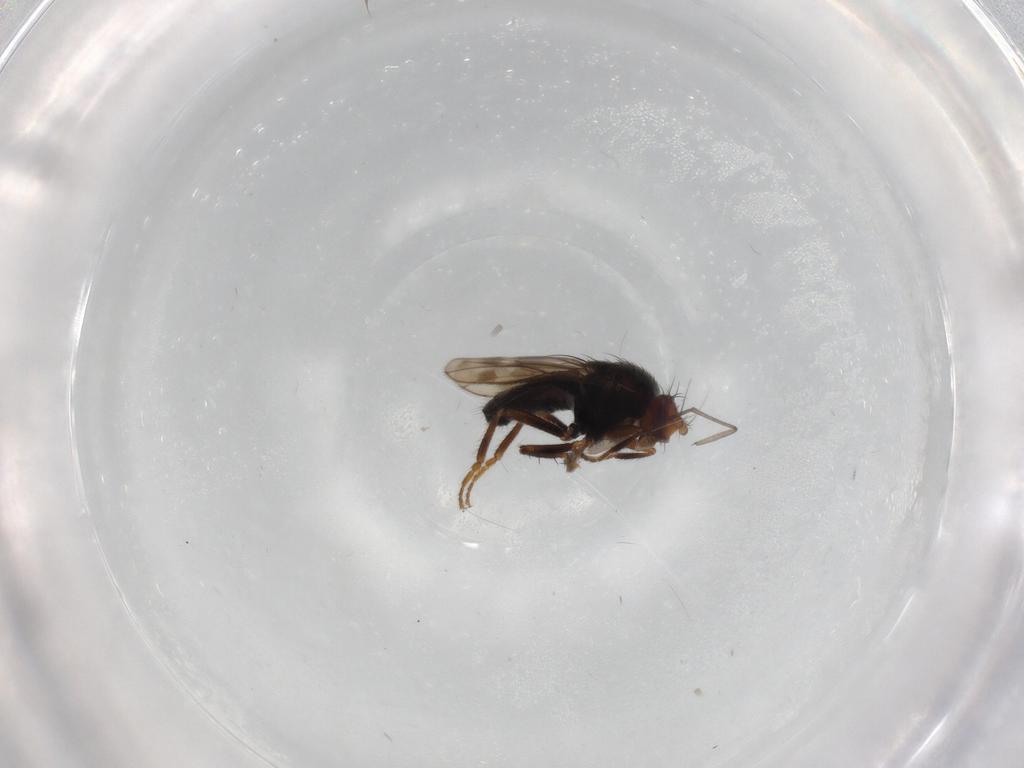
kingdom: Animalia
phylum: Arthropoda
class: Insecta
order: Diptera
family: Sphaeroceridae
